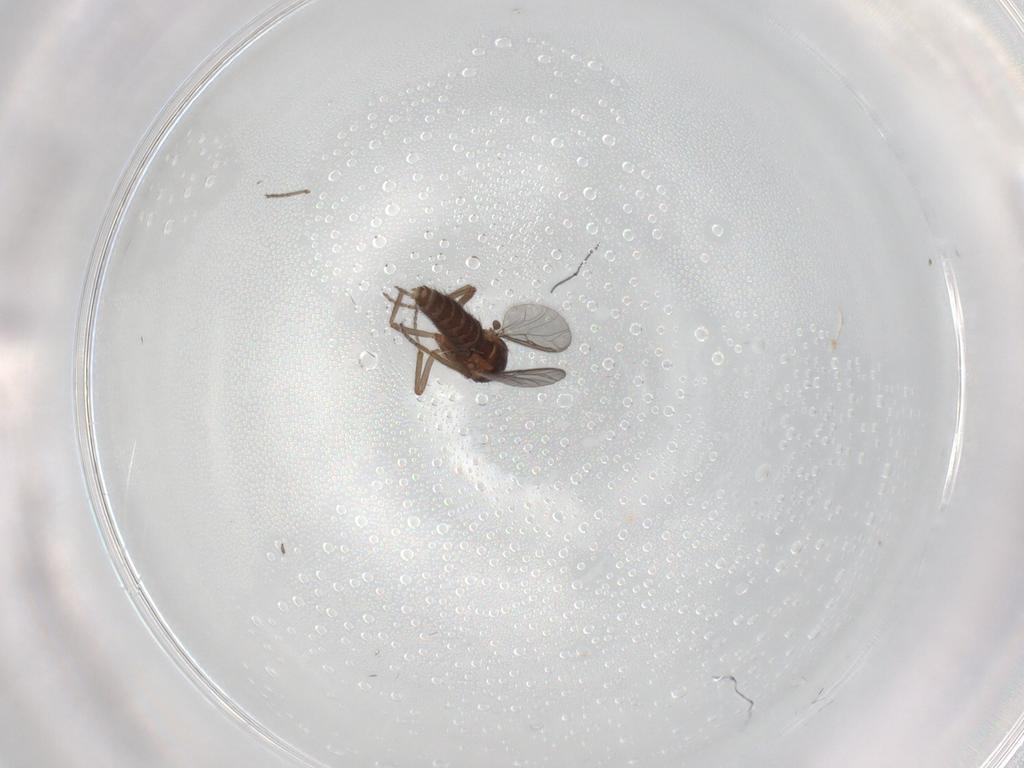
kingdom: Animalia
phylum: Arthropoda
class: Insecta
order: Diptera
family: Ceratopogonidae
